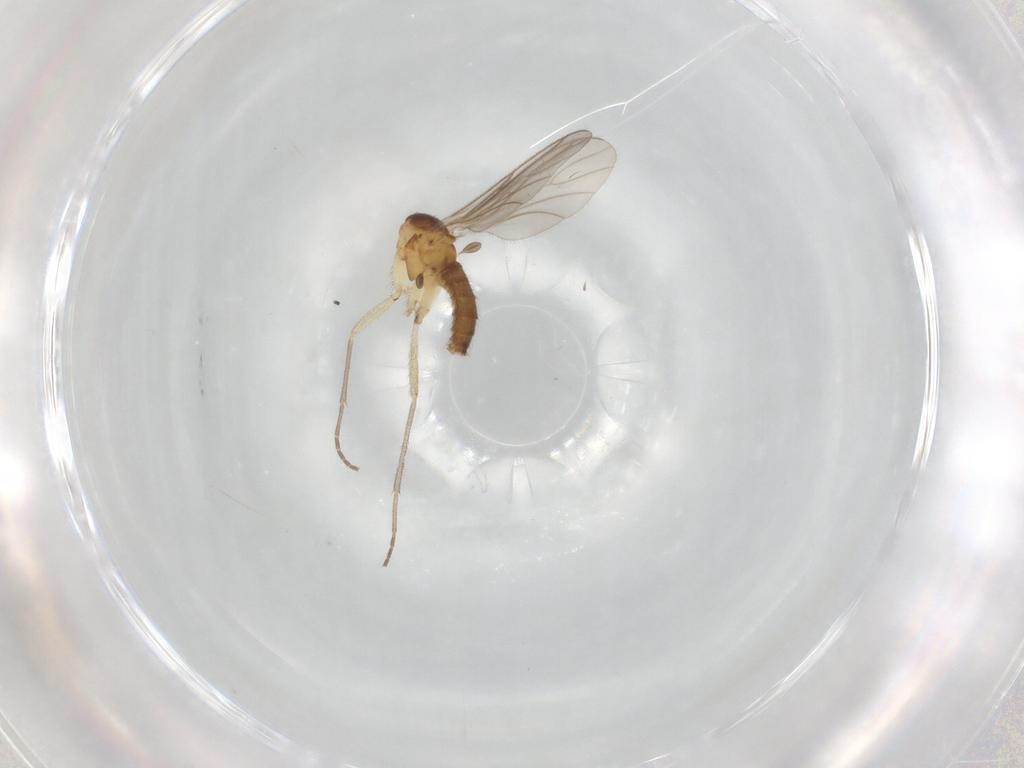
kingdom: Animalia
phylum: Arthropoda
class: Insecta
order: Diptera
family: Sciaridae
